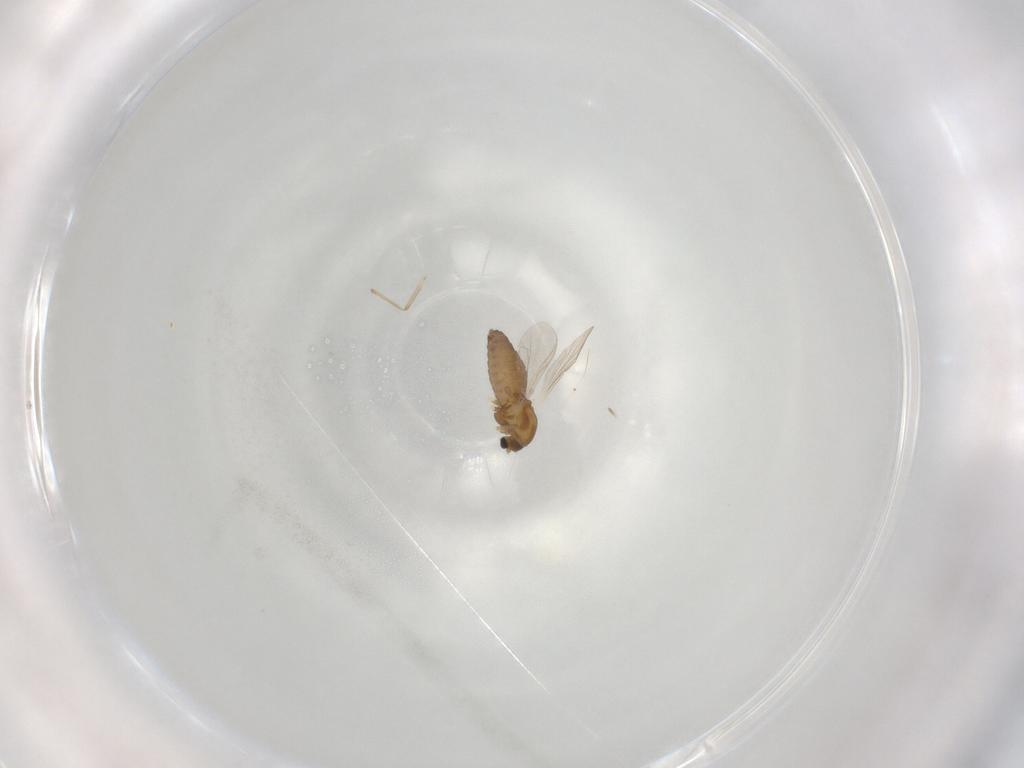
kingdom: Animalia
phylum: Arthropoda
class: Insecta
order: Diptera
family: Chironomidae
